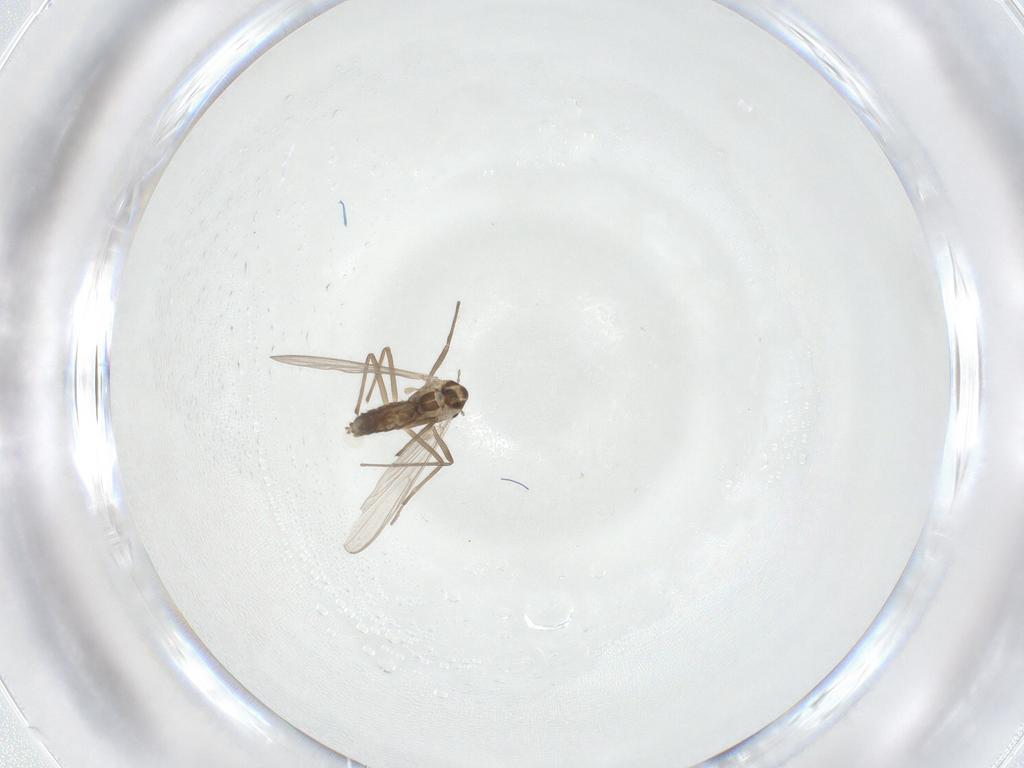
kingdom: Animalia
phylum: Arthropoda
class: Insecta
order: Diptera
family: Chironomidae
